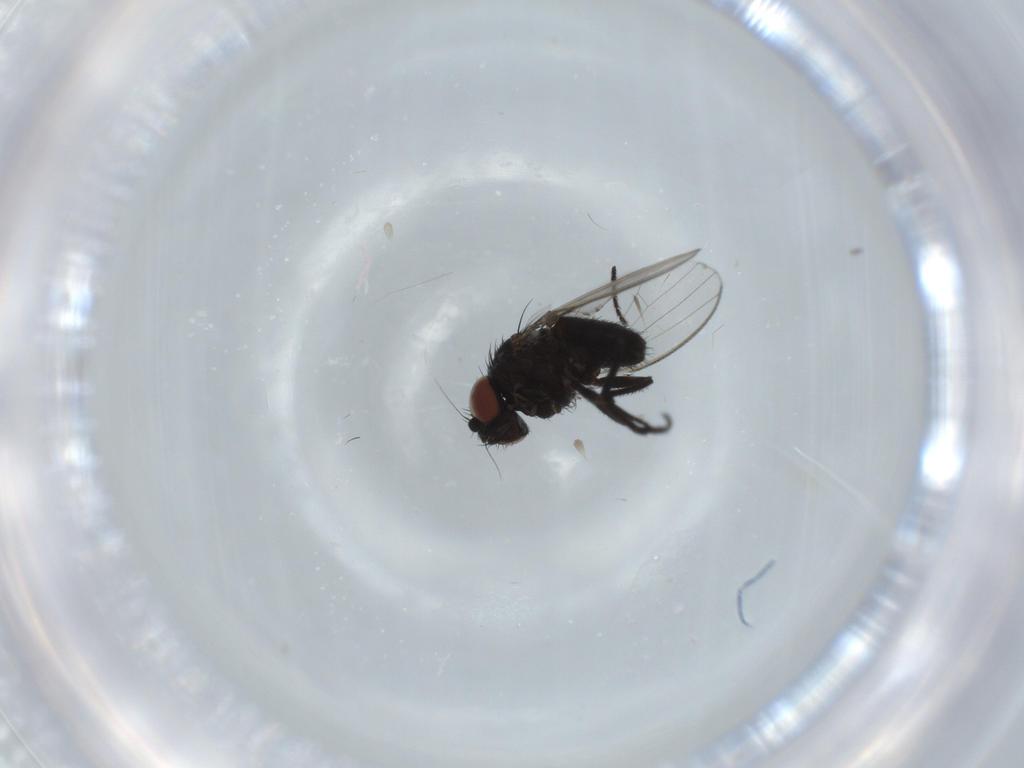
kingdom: Animalia
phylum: Arthropoda
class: Insecta
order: Diptera
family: Milichiidae
